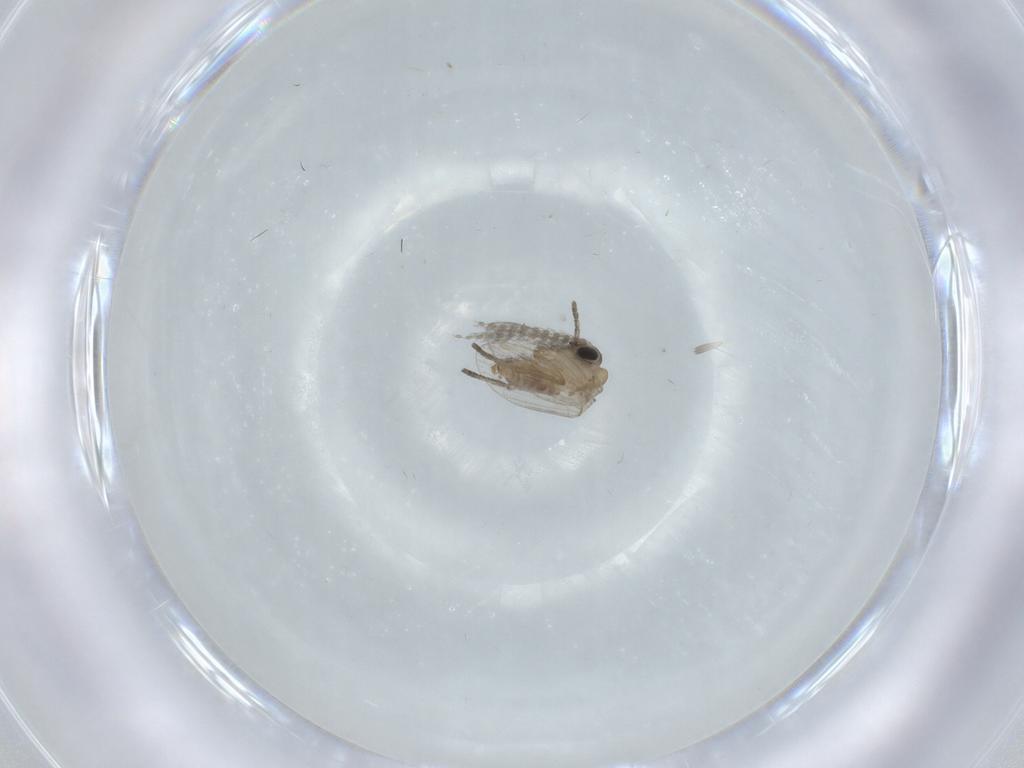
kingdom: Animalia
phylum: Arthropoda
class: Insecta
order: Diptera
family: Psychodidae
